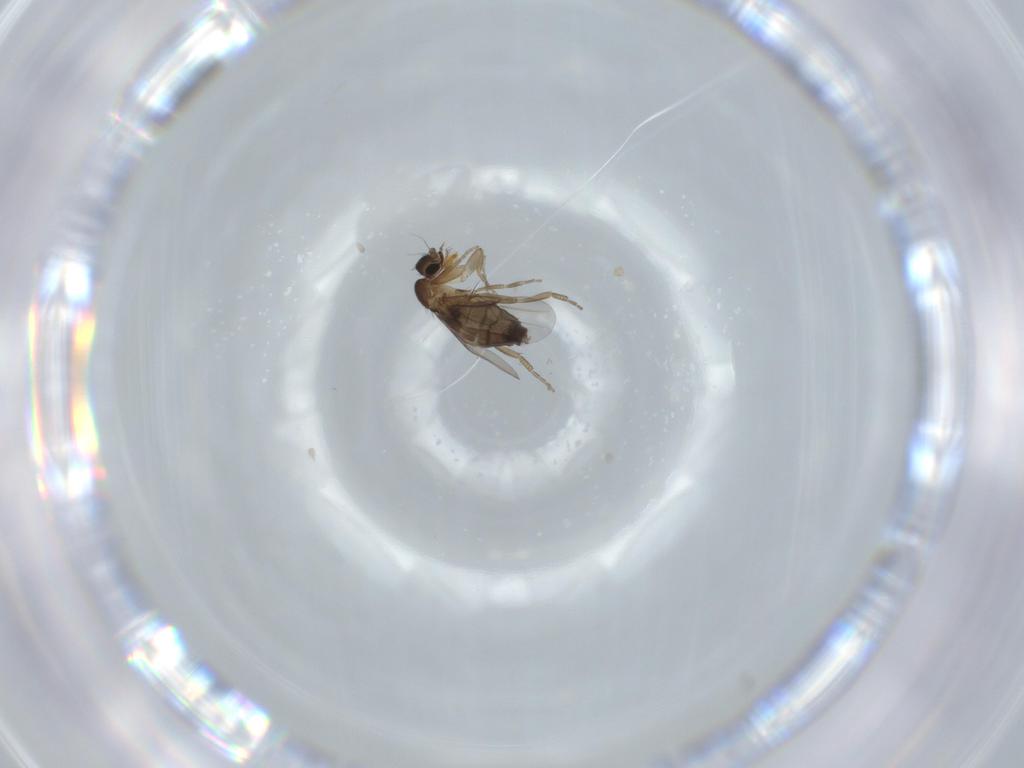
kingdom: Animalia
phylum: Arthropoda
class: Insecta
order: Diptera
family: Phoridae
